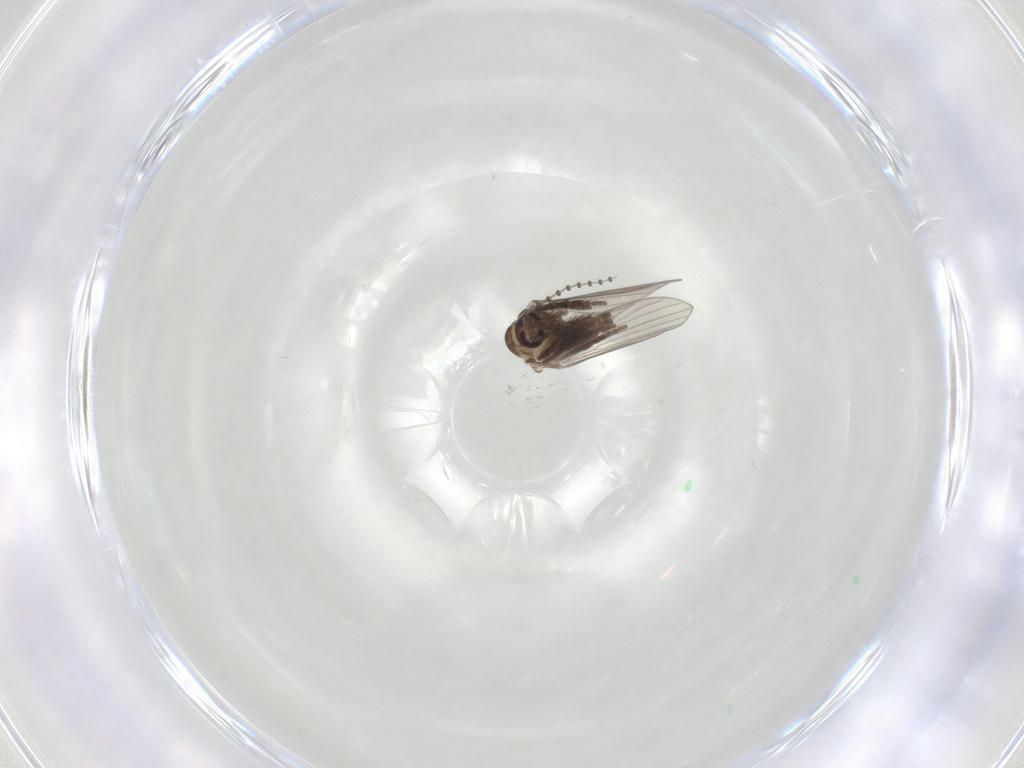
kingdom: Animalia
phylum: Arthropoda
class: Insecta
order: Diptera
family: Psychodidae
